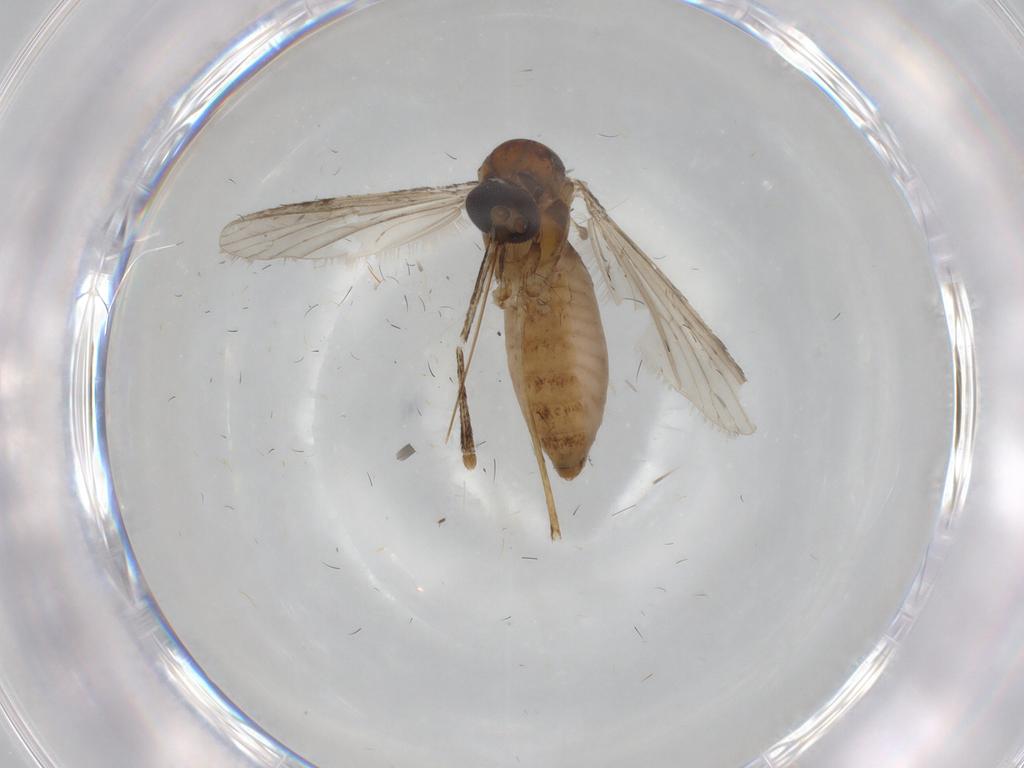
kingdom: Animalia
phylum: Arthropoda
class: Insecta
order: Diptera
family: Culicidae
